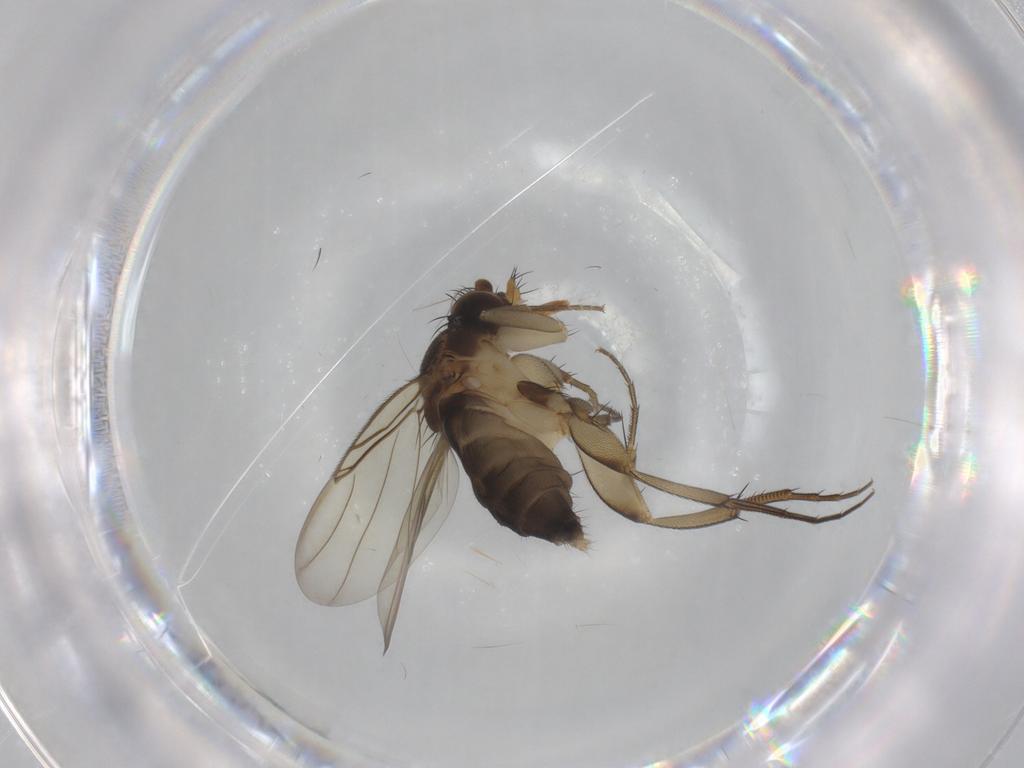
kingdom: Animalia
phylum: Arthropoda
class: Insecta
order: Diptera
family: Phoridae
